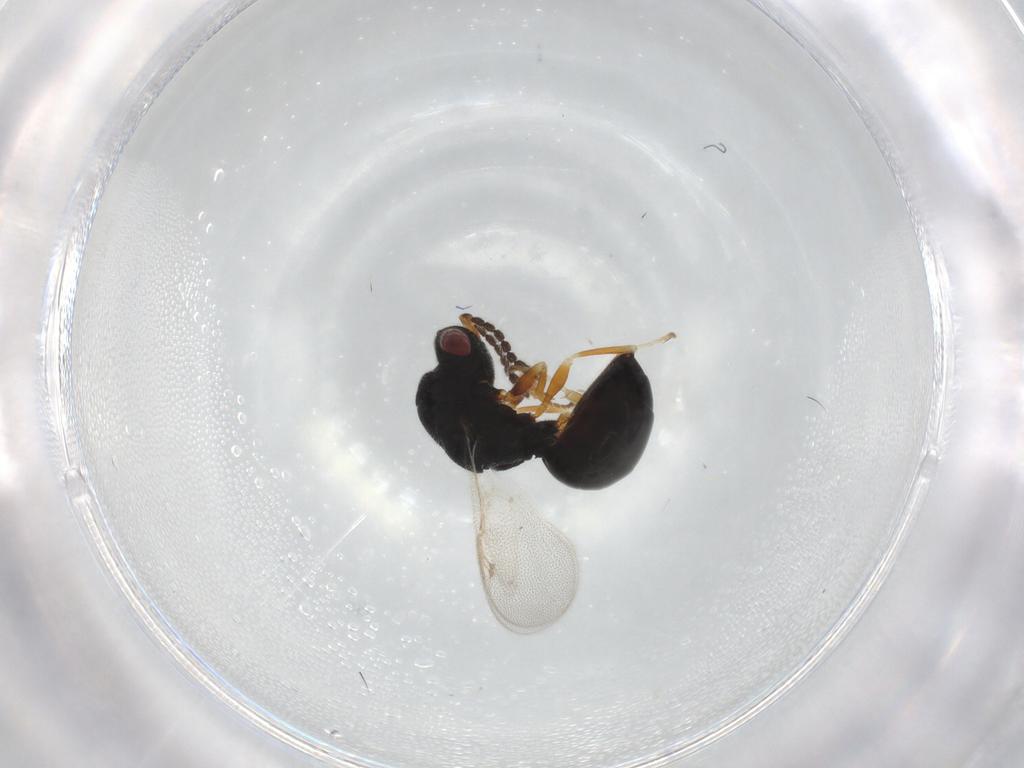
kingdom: Animalia
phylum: Arthropoda
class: Insecta
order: Hymenoptera
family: Eurytomidae
